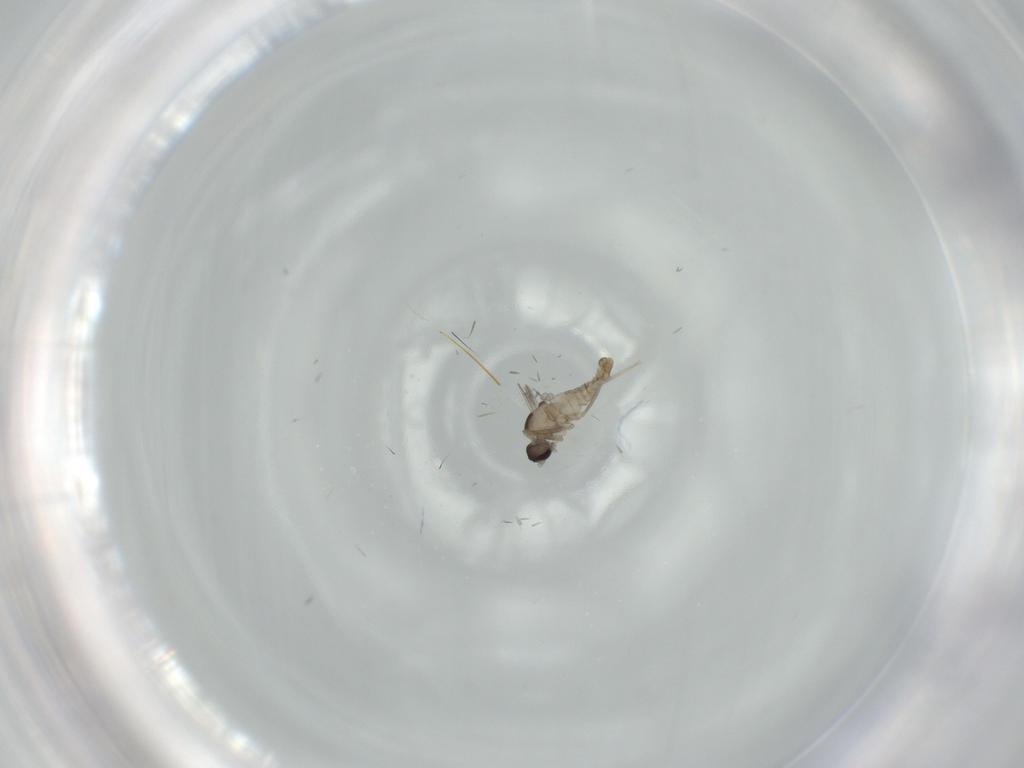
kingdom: Animalia
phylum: Arthropoda
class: Insecta
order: Diptera
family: Cecidomyiidae
